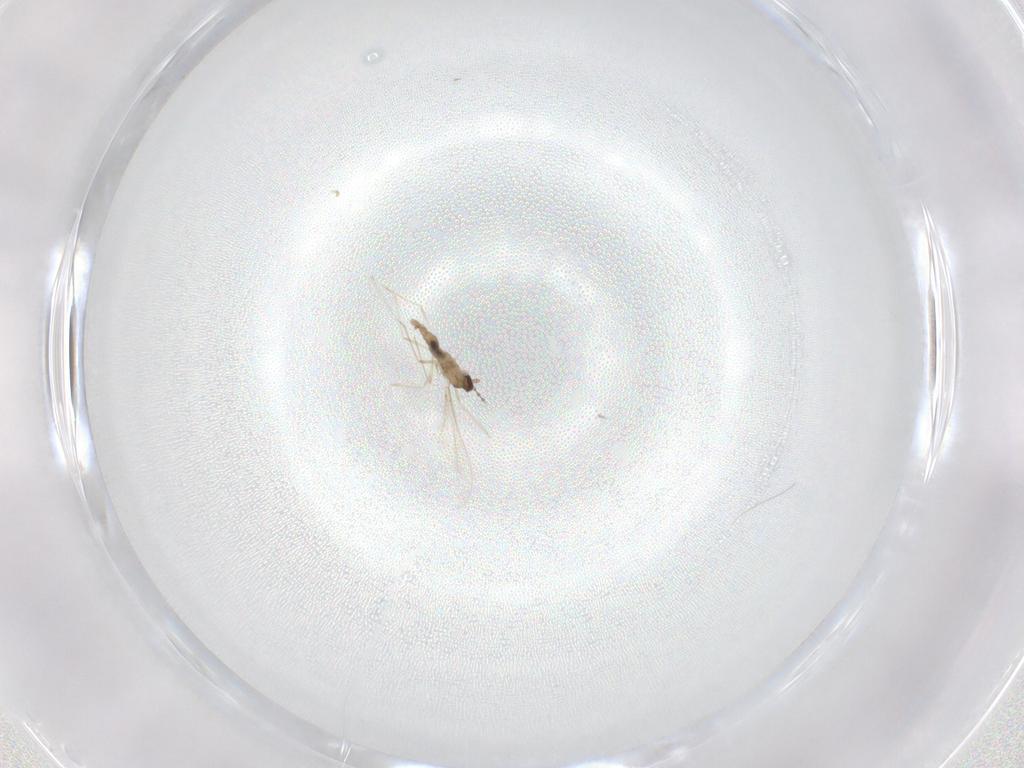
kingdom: Animalia
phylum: Arthropoda
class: Insecta
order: Diptera
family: Cecidomyiidae
